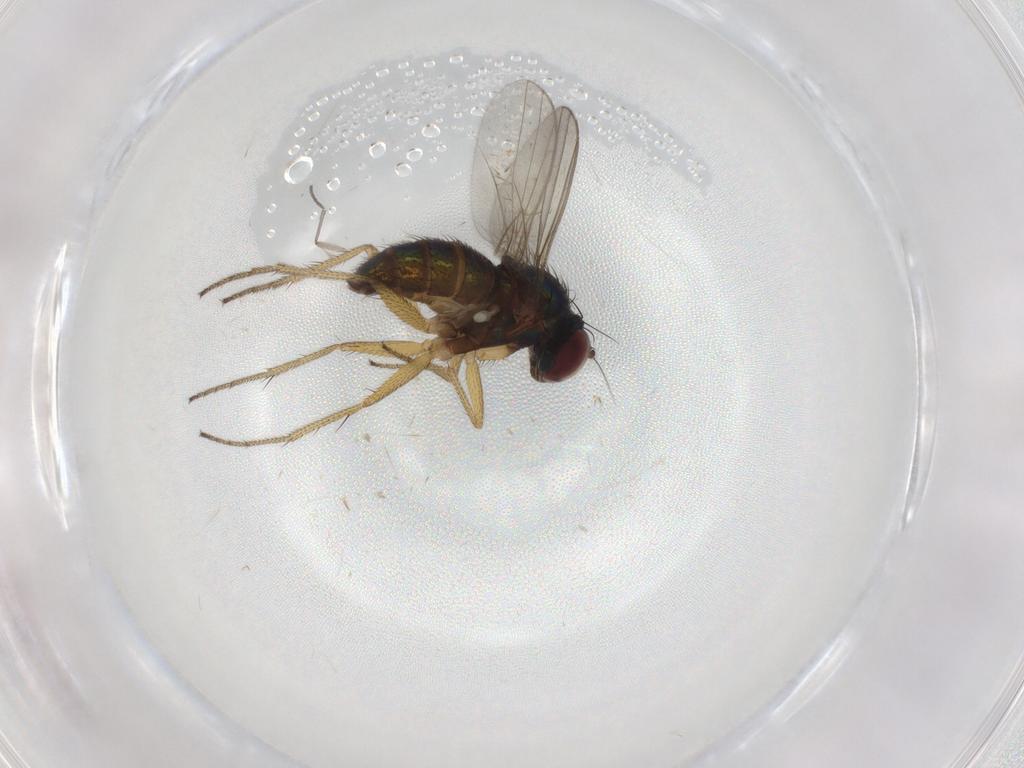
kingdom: Animalia
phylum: Arthropoda
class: Insecta
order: Diptera
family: Sciaridae
